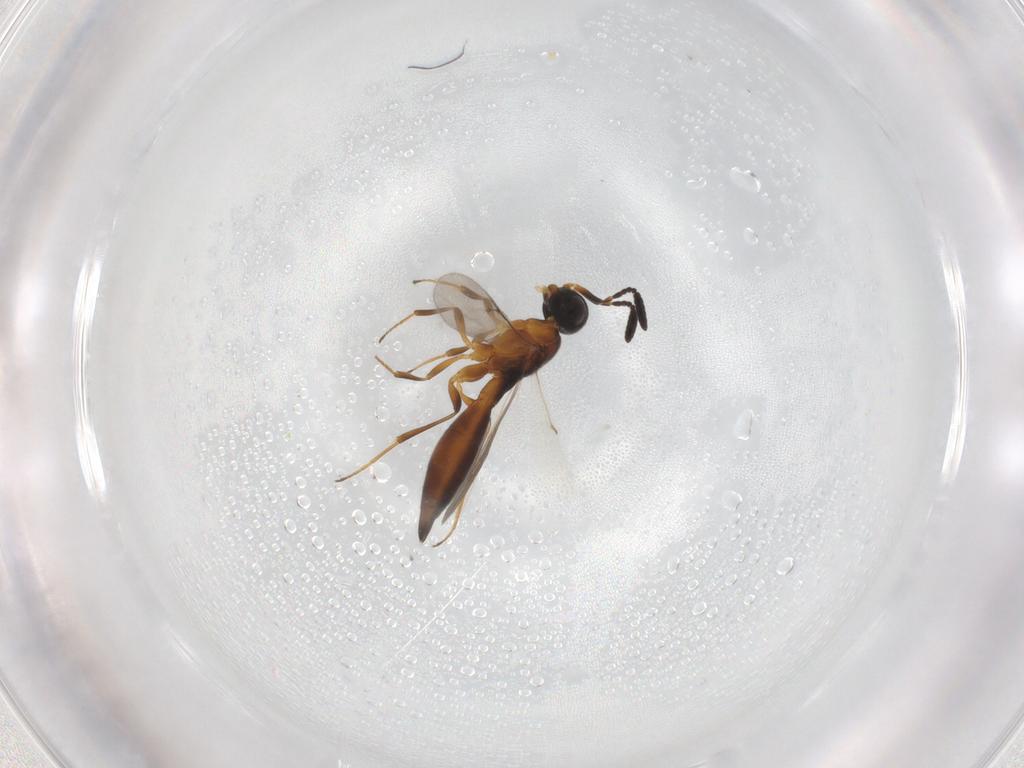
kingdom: Animalia
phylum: Arthropoda
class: Insecta
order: Hymenoptera
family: Scelionidae
